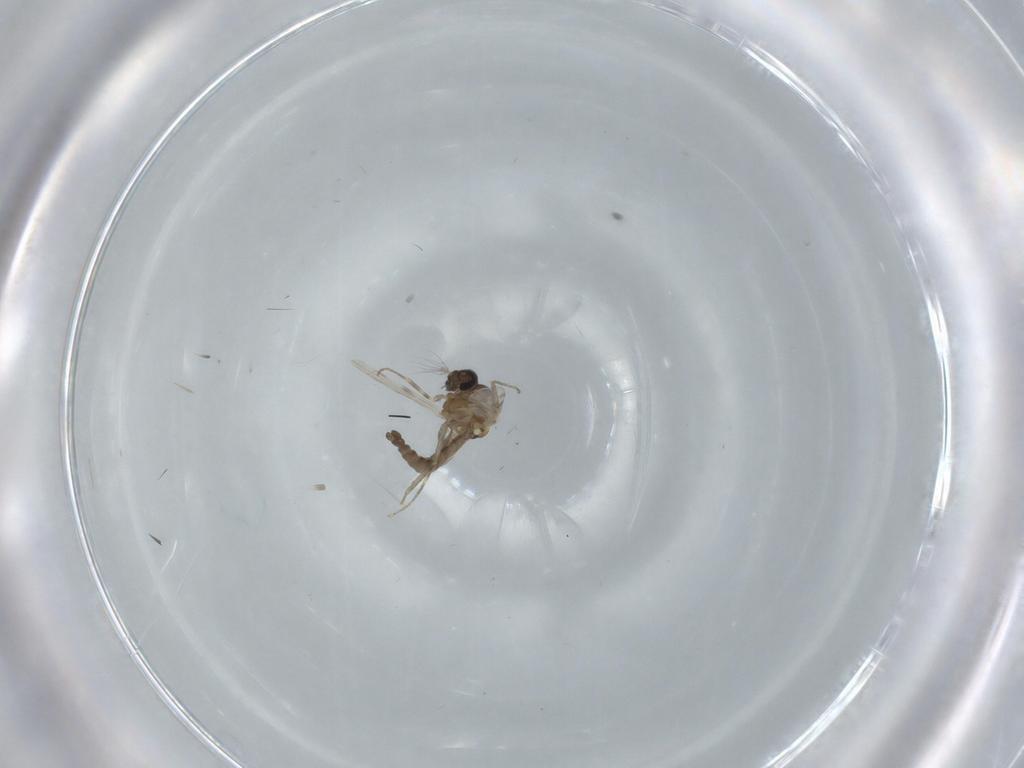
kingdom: Animalia
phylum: Arthropoda
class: Insecta
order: Diptera
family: Ceratopogonidae
